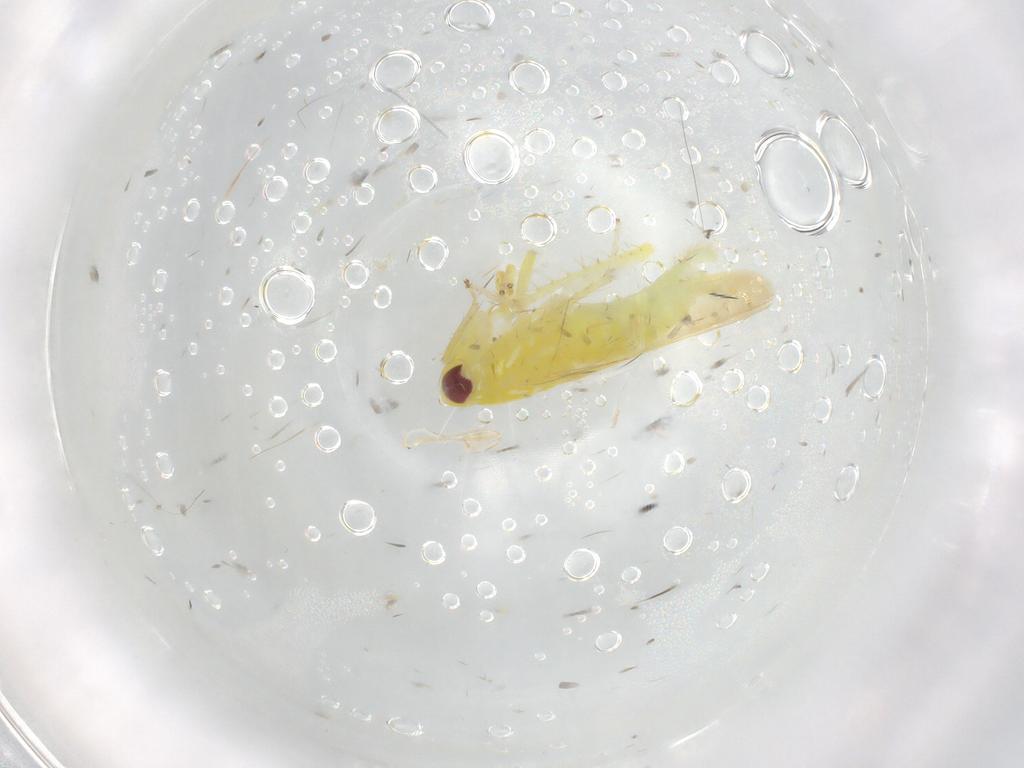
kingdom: Animalia
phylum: Arthropoda
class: Insecta
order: Hemiptera
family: Cicadellidae
